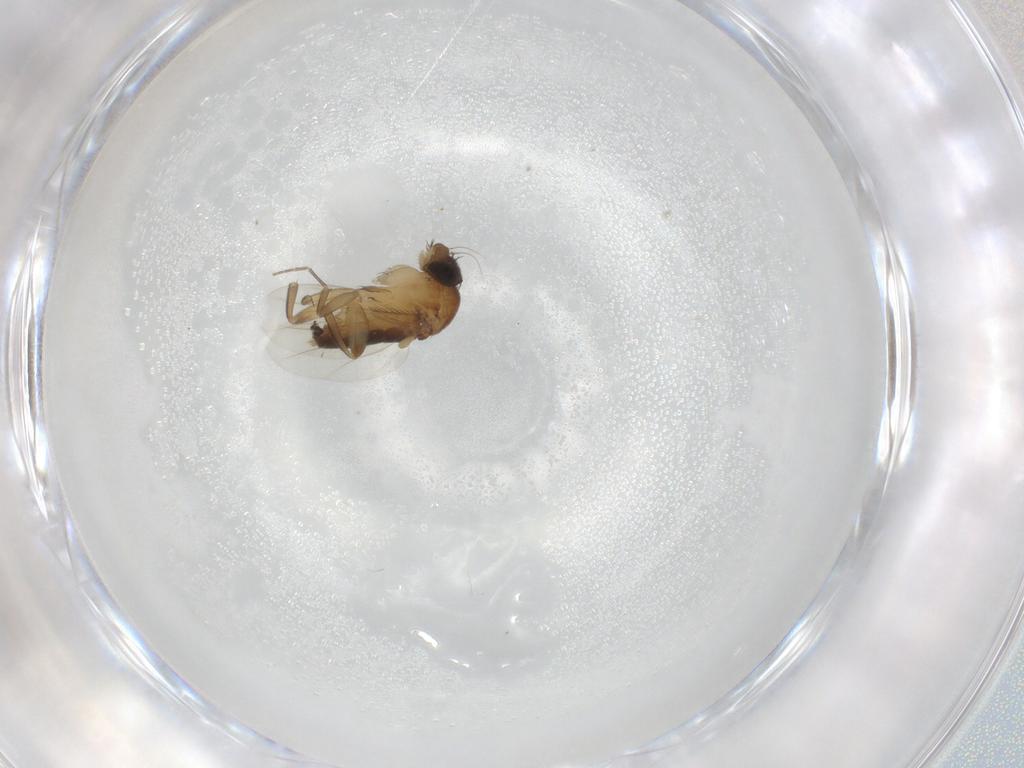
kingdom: Animalia
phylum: Arthropoda
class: Insecta
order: Diptera
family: Phoridae
